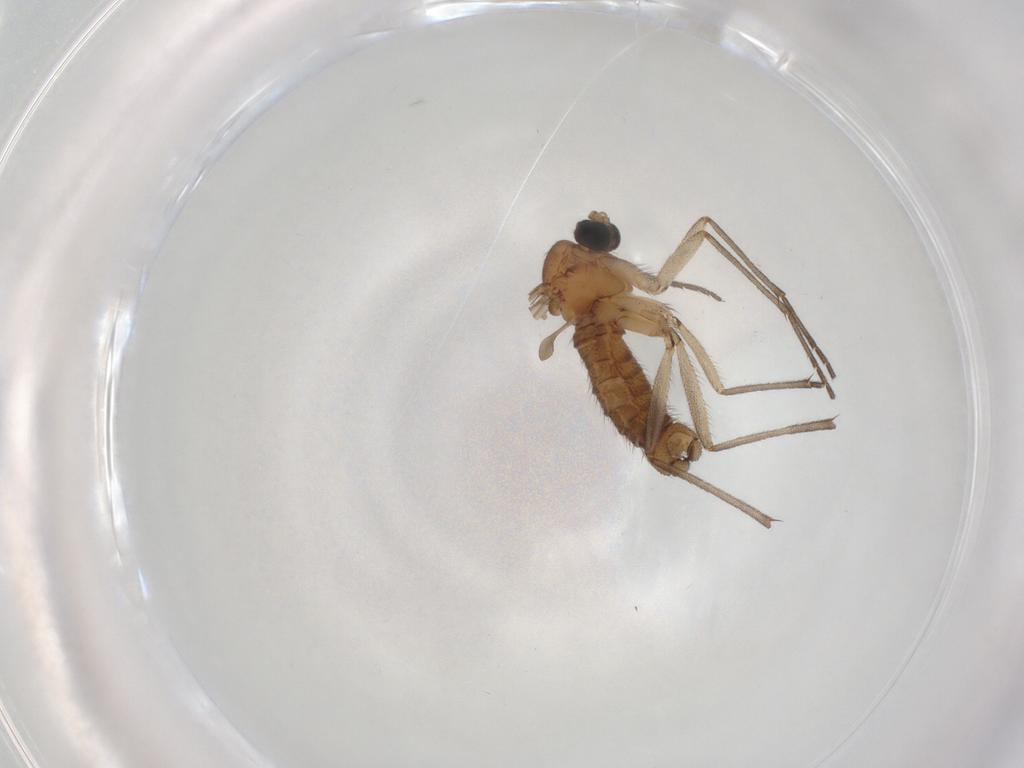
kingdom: Animalia
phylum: Arthropoda
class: Insecta
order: Diptera
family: Sciaridae
